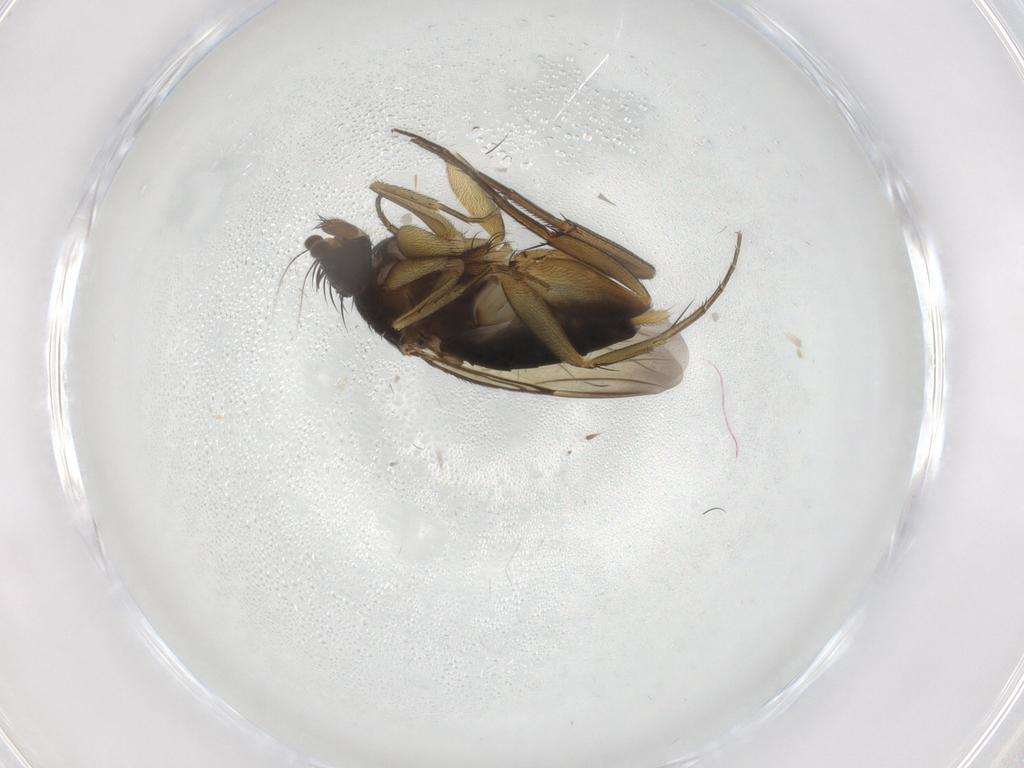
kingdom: Animalia
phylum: Arthropoda
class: Insecta
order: Diptera
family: Phoridae
